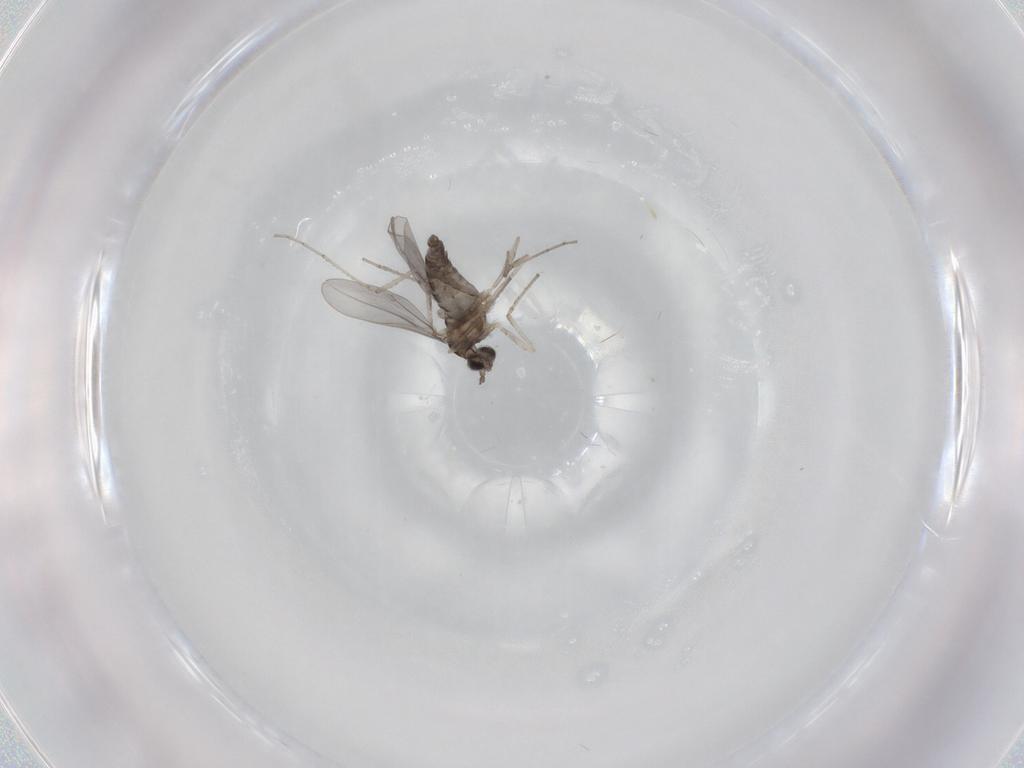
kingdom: Animalia
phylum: Arthropoda
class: Insecta
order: Diptera
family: Cecidomyiidae
